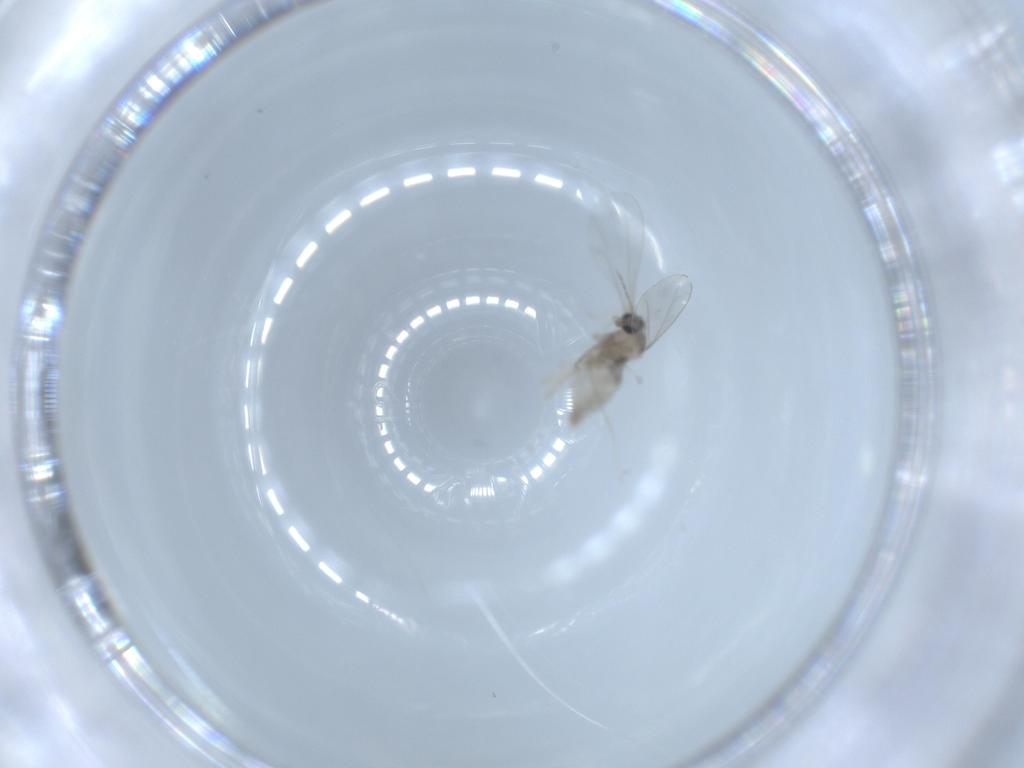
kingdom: Animalia
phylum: Arthropoda
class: Insecta
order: Diptera
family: Cecidomyiidae
